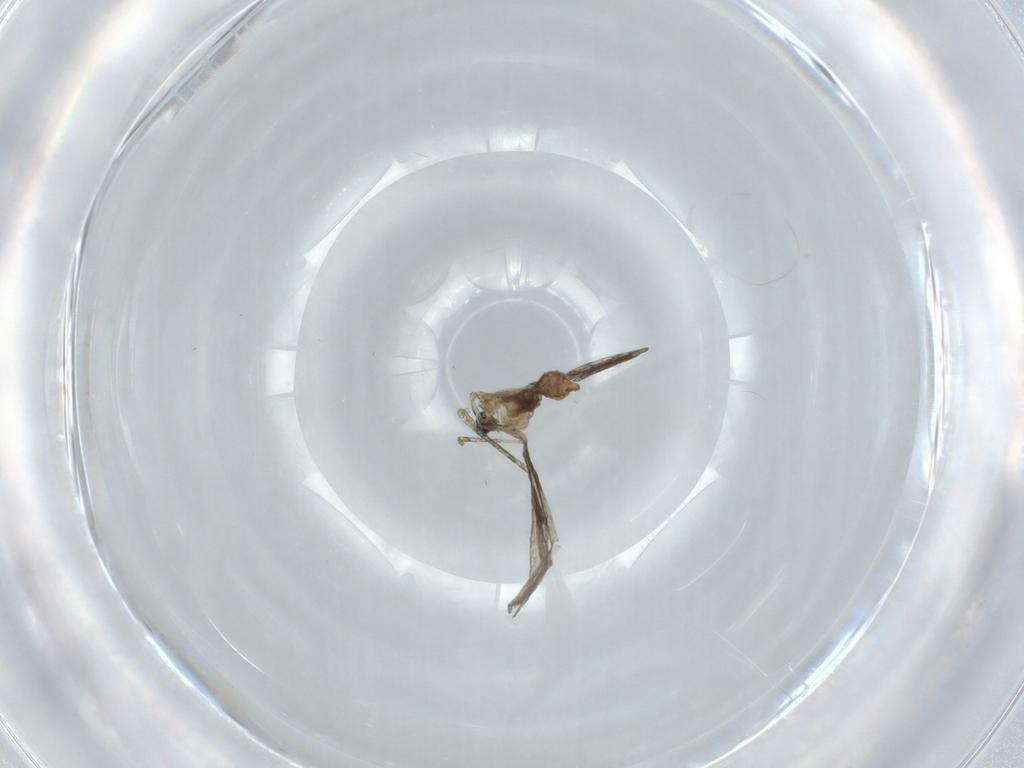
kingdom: Animalia
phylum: Arthropoda
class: Insecta
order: Diptera
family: Cecidomyiidae
